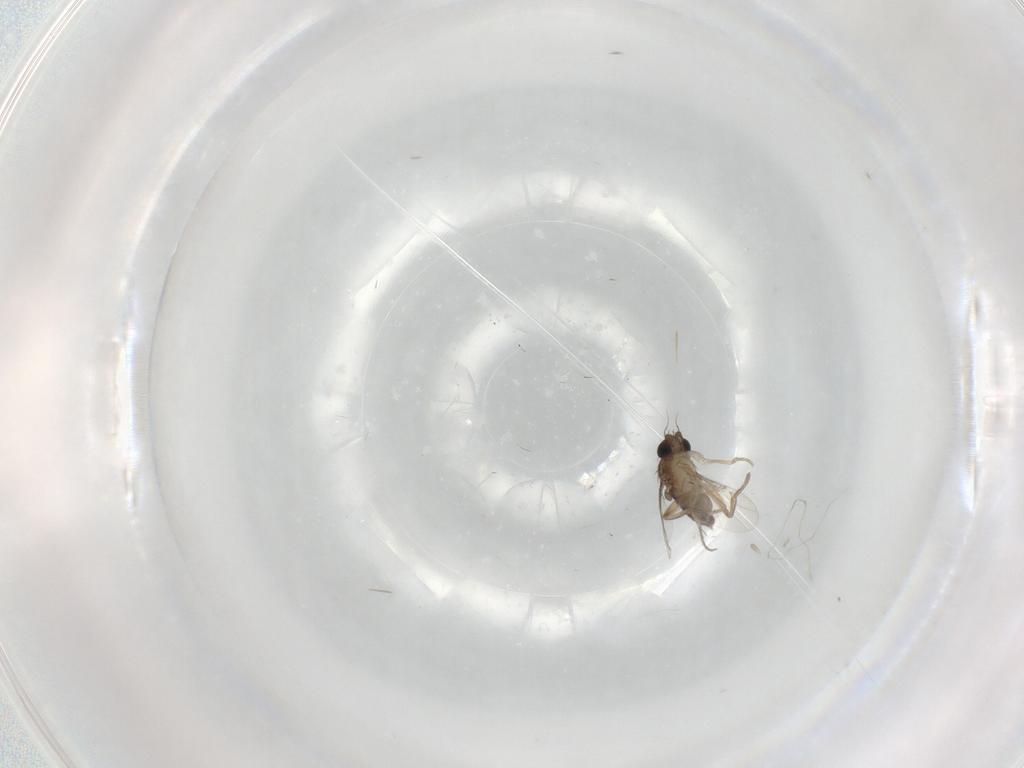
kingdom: Animalia
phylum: Arthropoda
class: Insecta
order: Diptera
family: Phoridae
